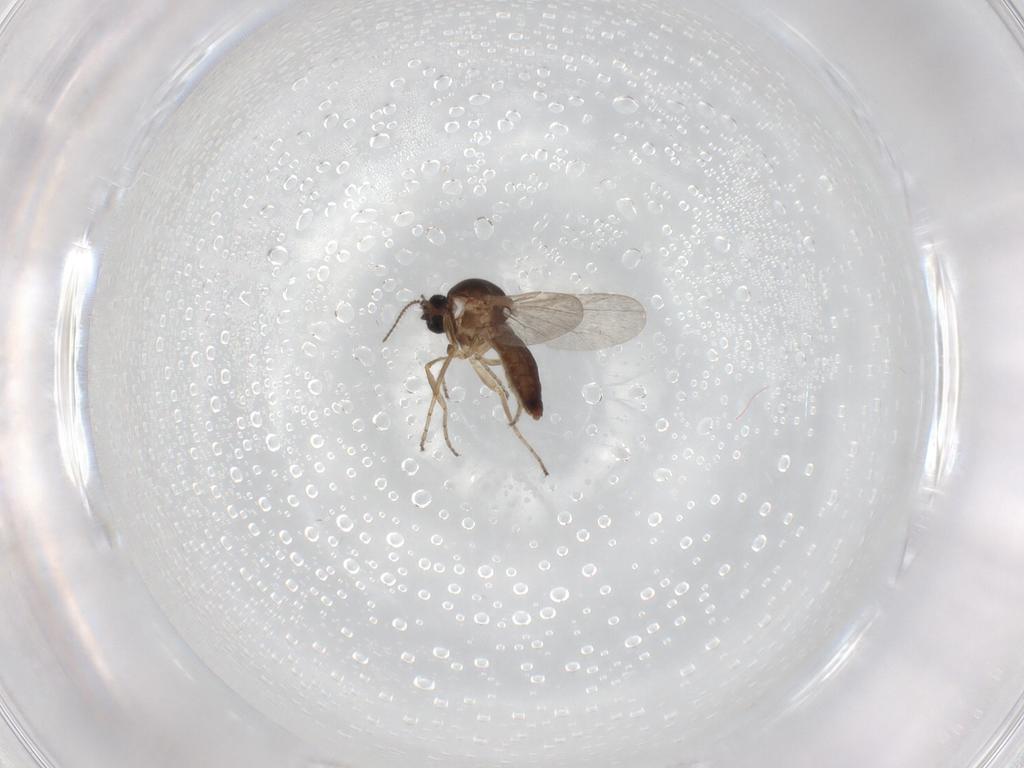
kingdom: Animalia
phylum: Arthropoda
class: Insecta
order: Diptera
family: Ceratopogonidae
